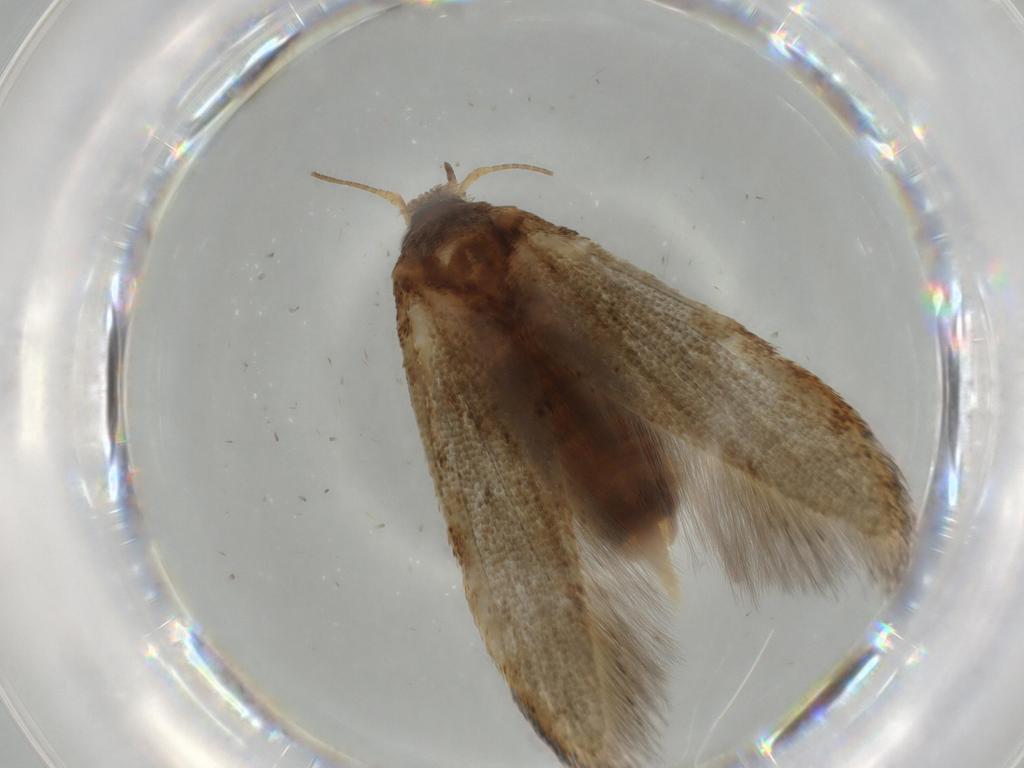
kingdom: Animalia
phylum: Arthropoda
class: Insecta
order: Lepidoptera
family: Blastobasidae
